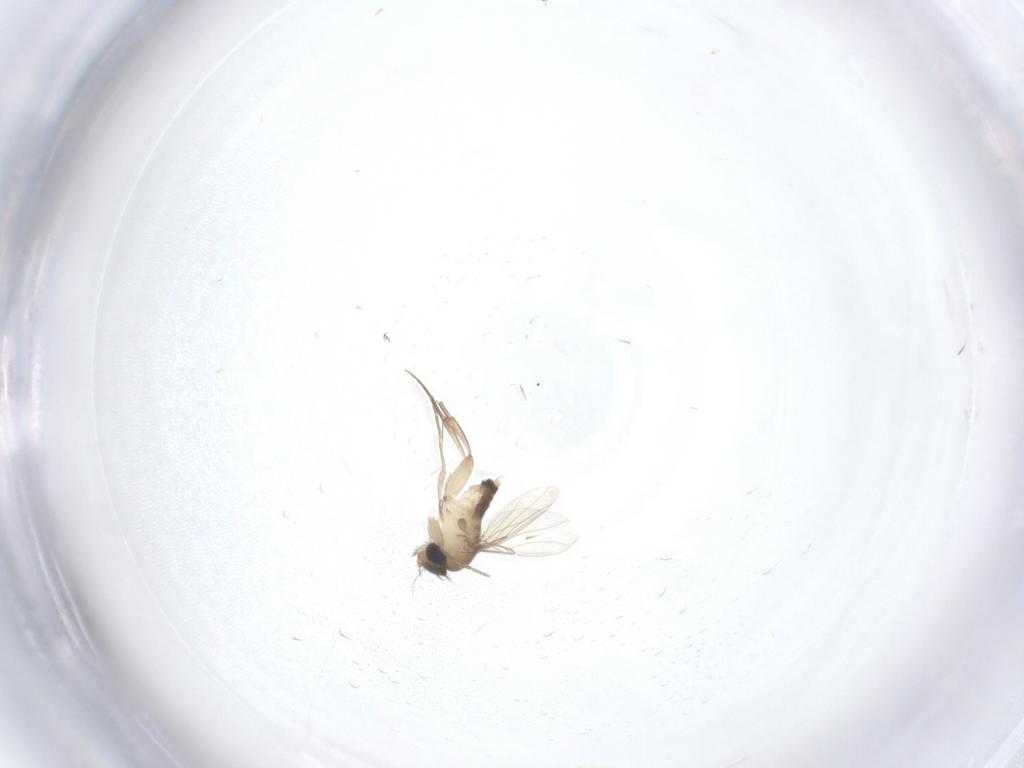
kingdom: Animalia
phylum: Arthropoda
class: Insecta
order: Diptera
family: Phoridae
